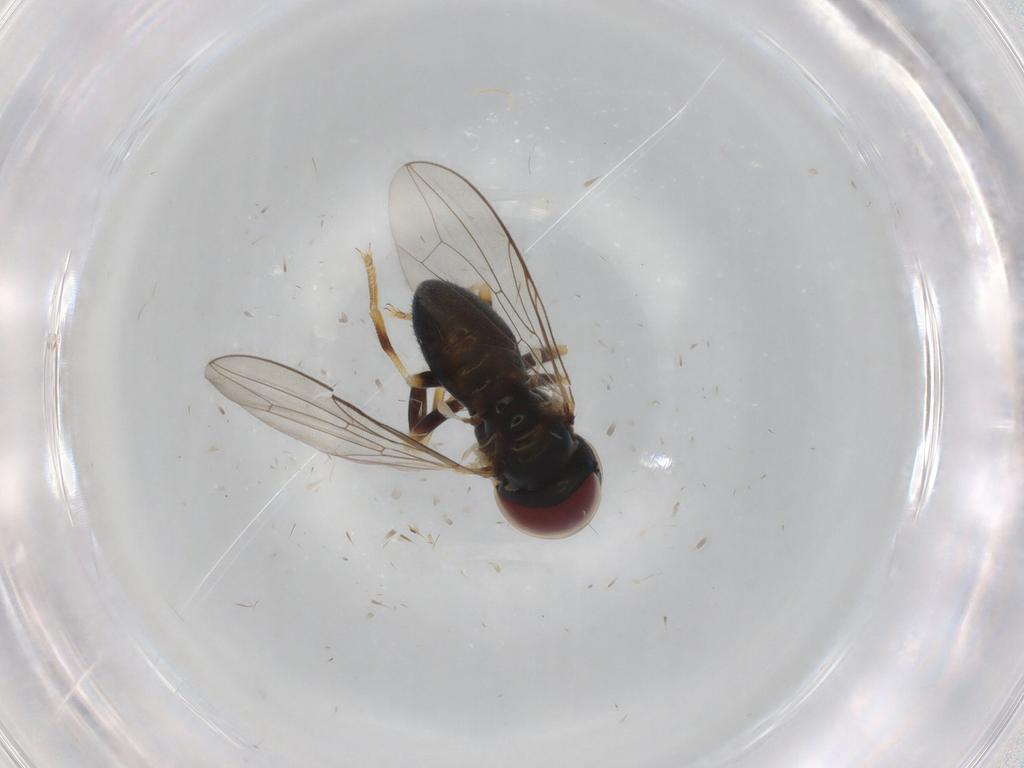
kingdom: Animalia
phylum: Arthropoda
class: Insecta
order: Diptera
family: Pipunculidae
